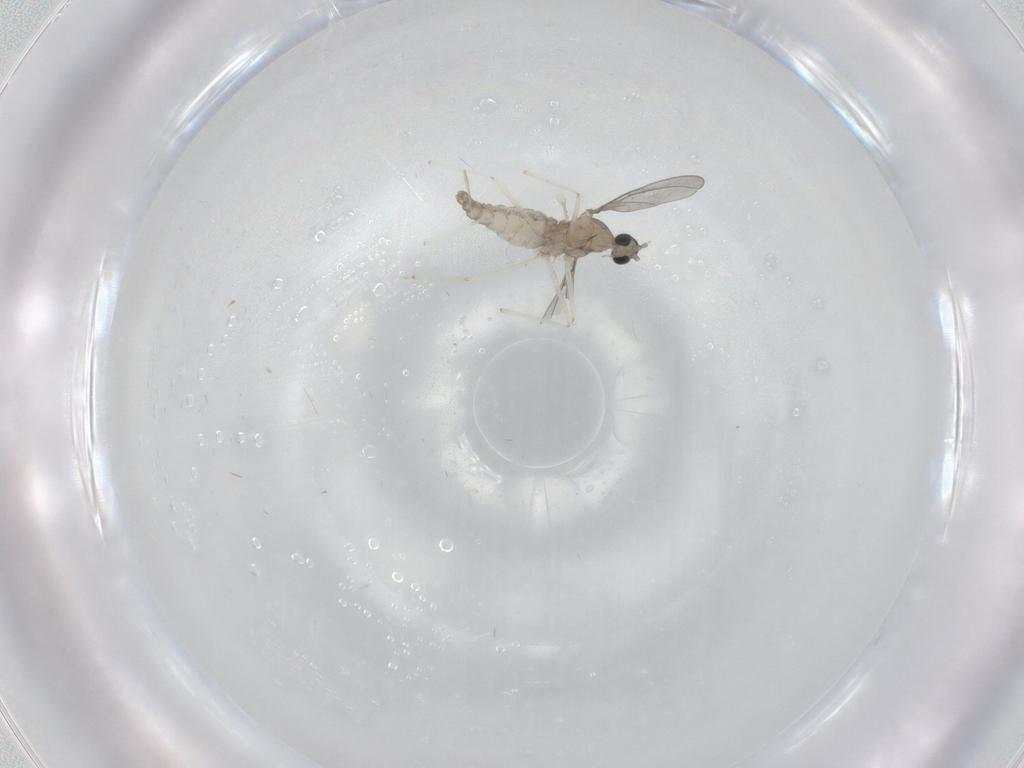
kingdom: Animalia
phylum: Arthropoda
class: Insecta
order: Diptera
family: Cecidomyiidae
